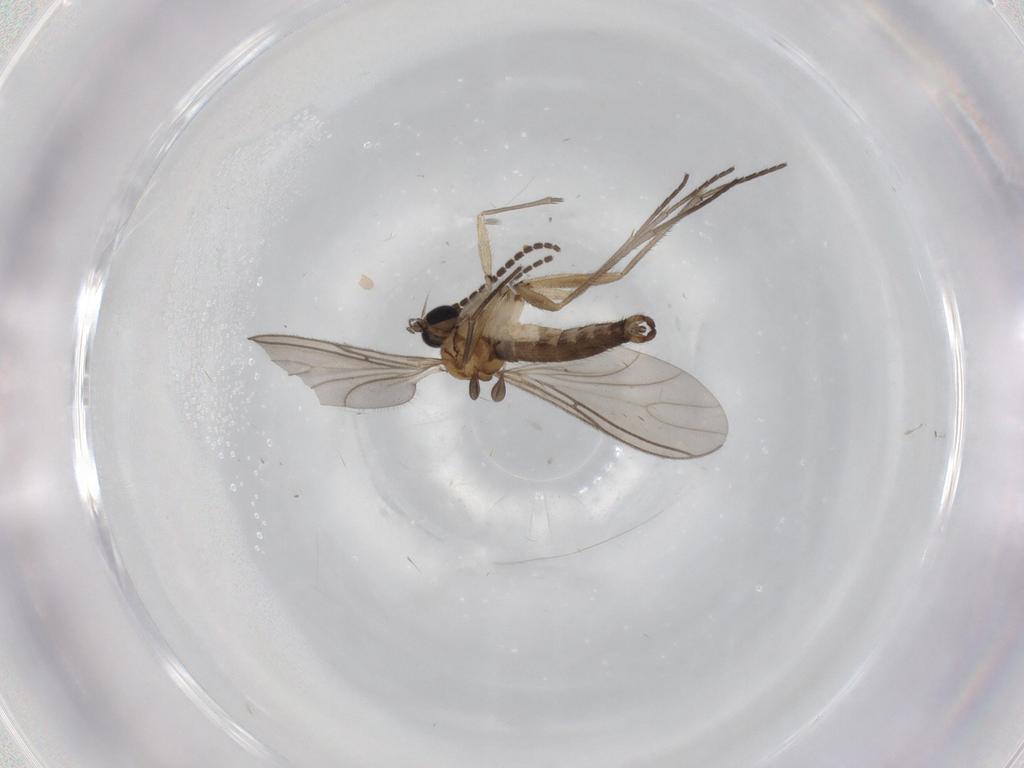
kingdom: Animalia
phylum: Arthropoda
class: Insecta
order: Diptera
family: Sciaridae
